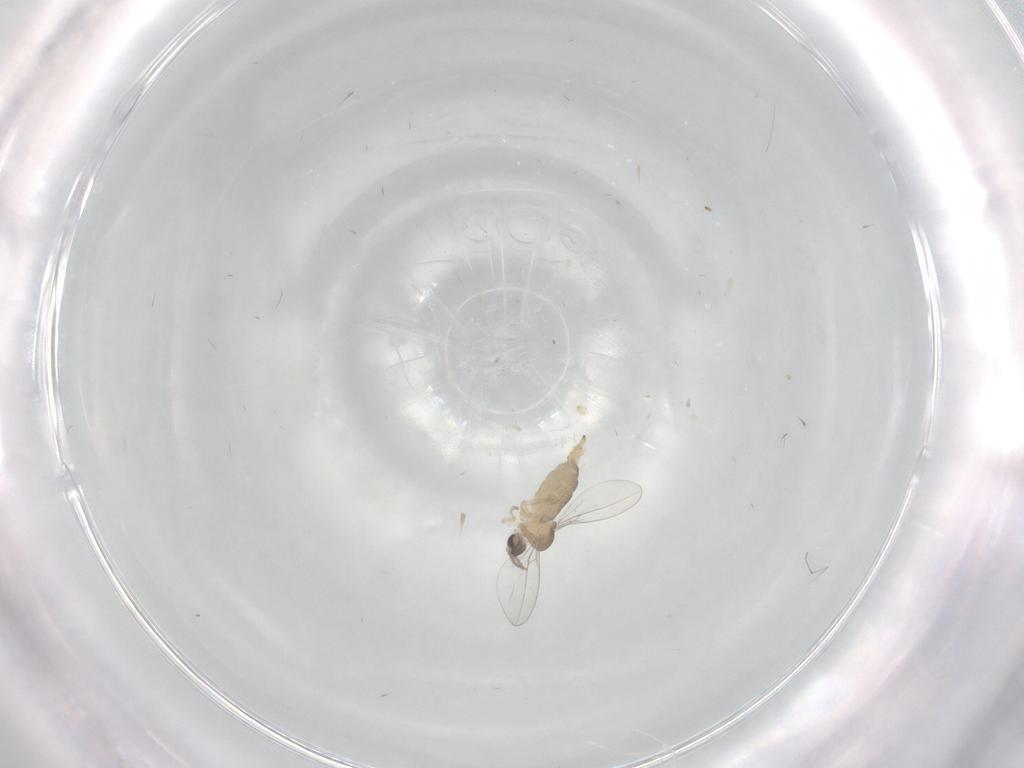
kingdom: Animalia
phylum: Arthropoda
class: Insecta
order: Diptera
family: Cecidomyiidae
